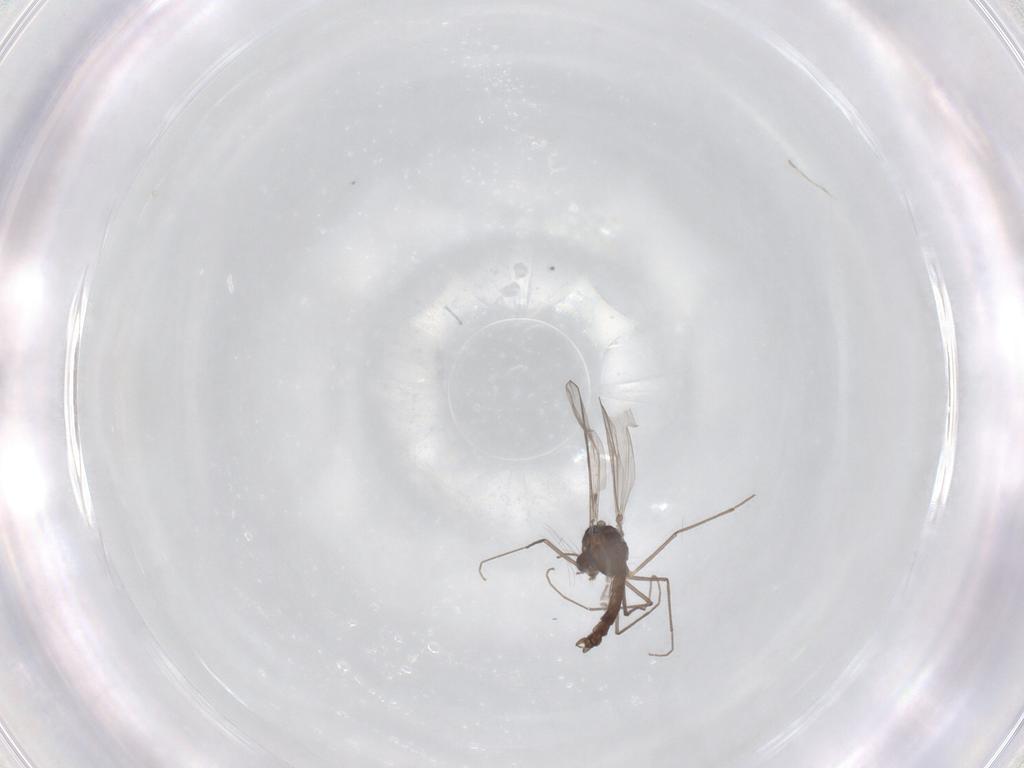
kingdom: Animalia
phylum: Arthropoda
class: Insecta
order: Diptera
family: Chironomidae
